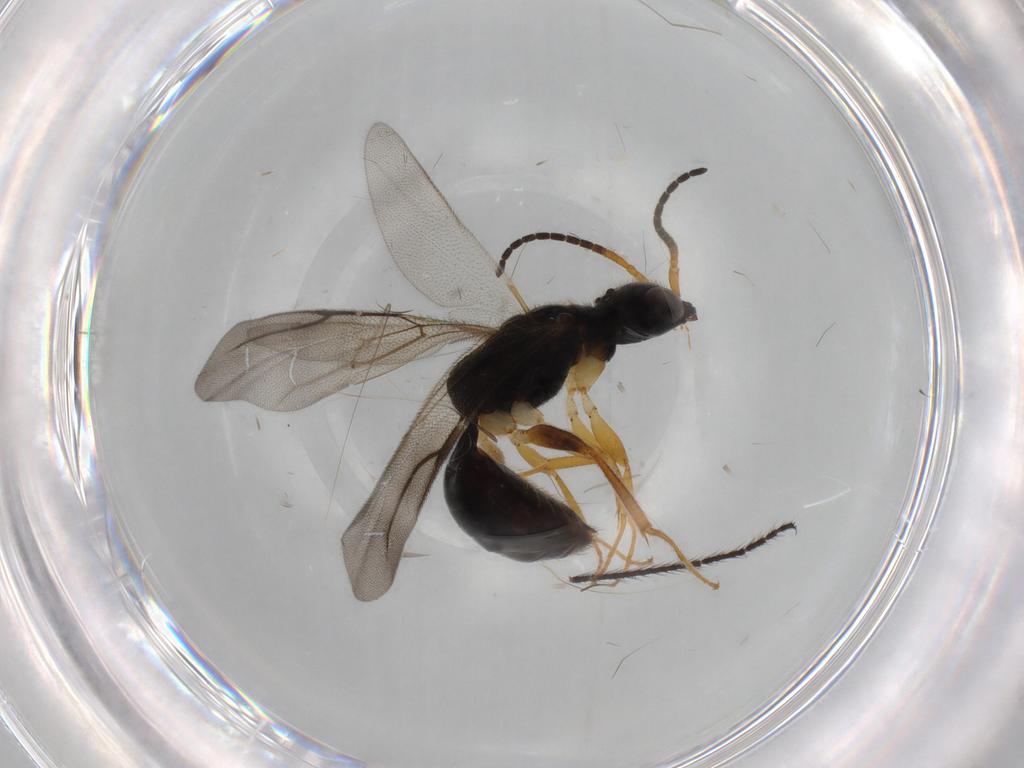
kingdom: Animalia
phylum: Arthropoda
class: Insecta
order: Hymenoptera
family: Bethylidae
